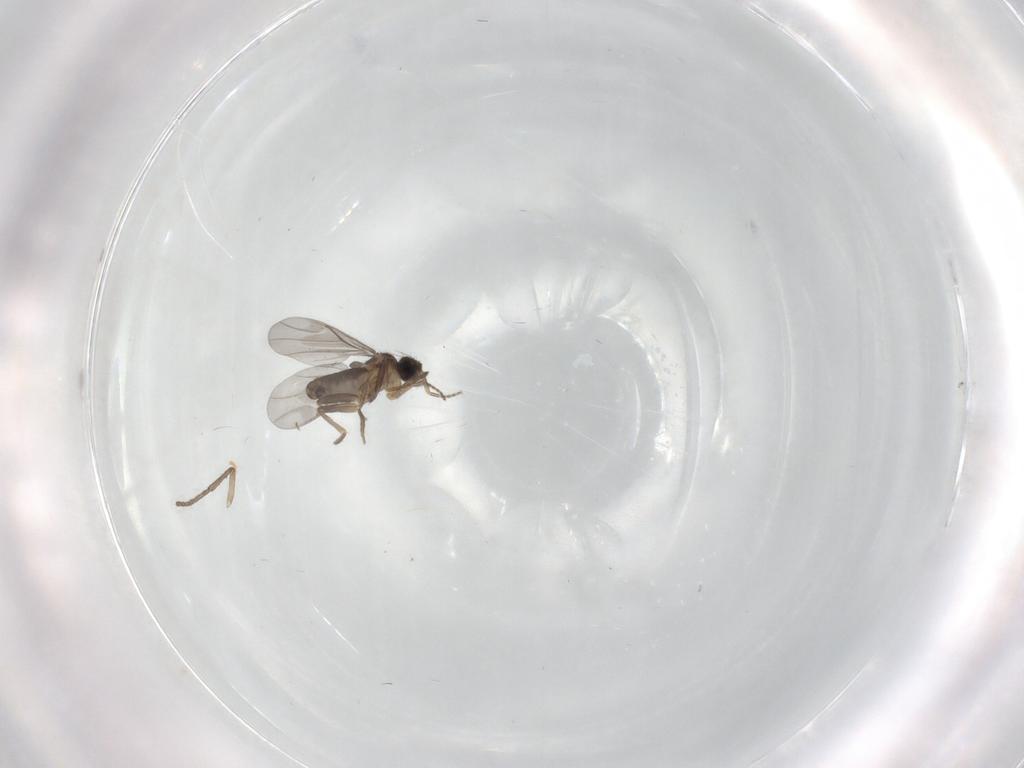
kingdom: Animalia
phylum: Arthropoda
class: Insecta
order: Diptera
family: Psychodidae
